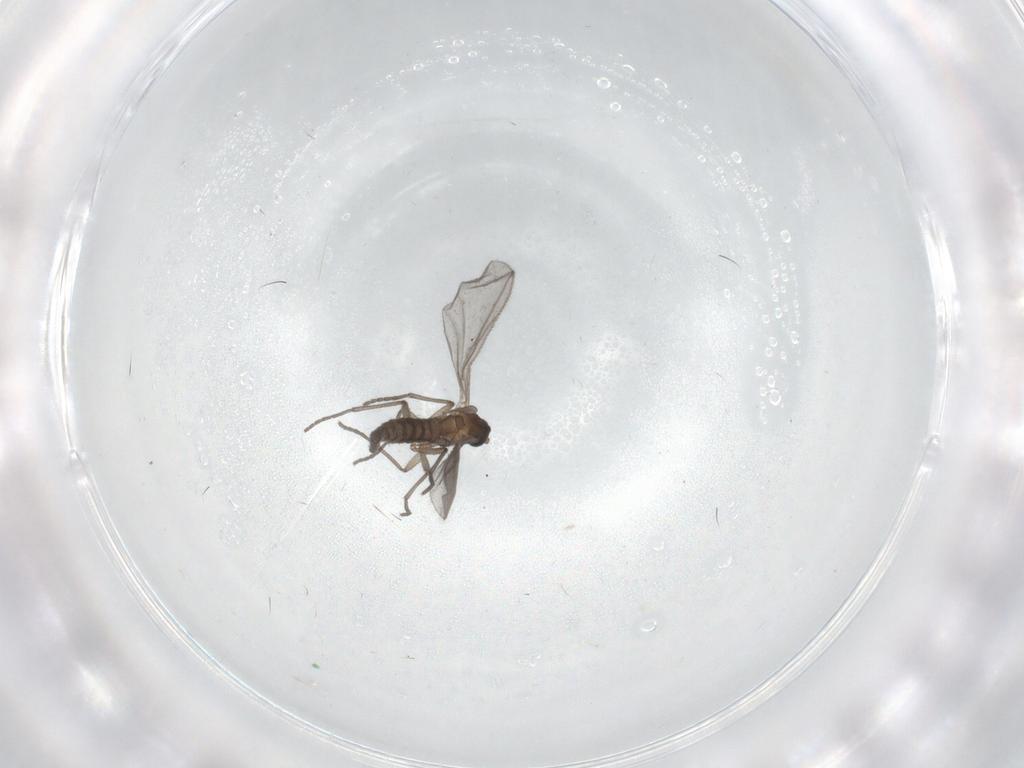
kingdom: Animalia
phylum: Arthropoda
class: Insecta
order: Diptera
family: Sciaridae
